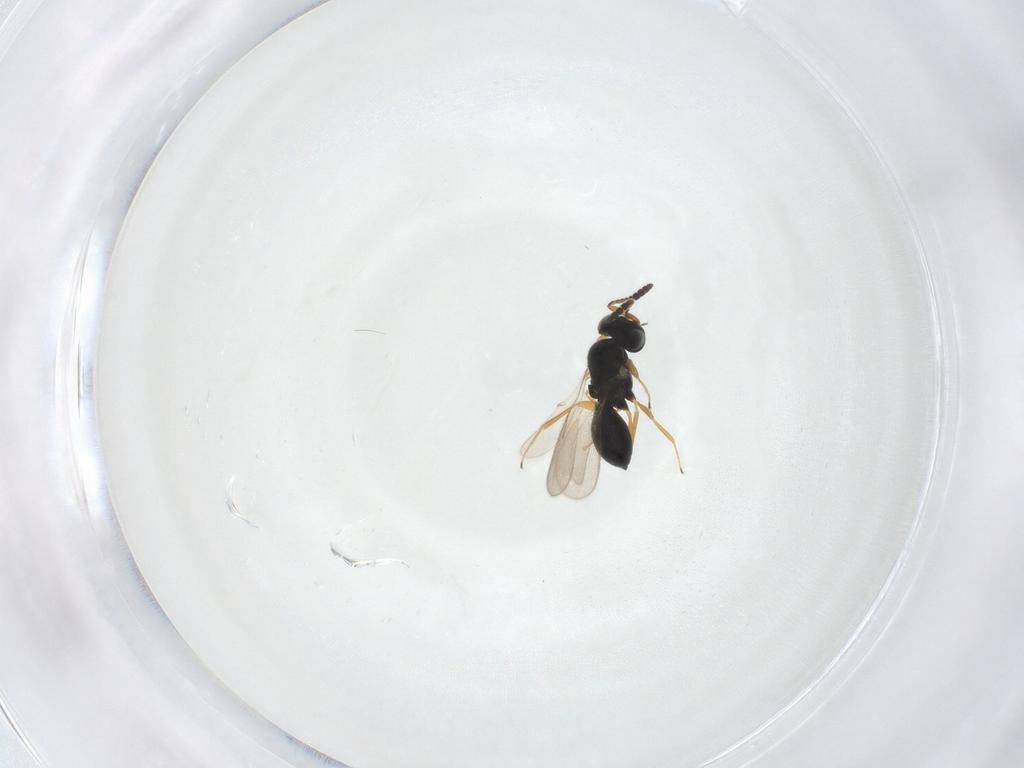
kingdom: Animalia
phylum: Arthropoda
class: Insecta
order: Hymenoptera
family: Scelionidae
